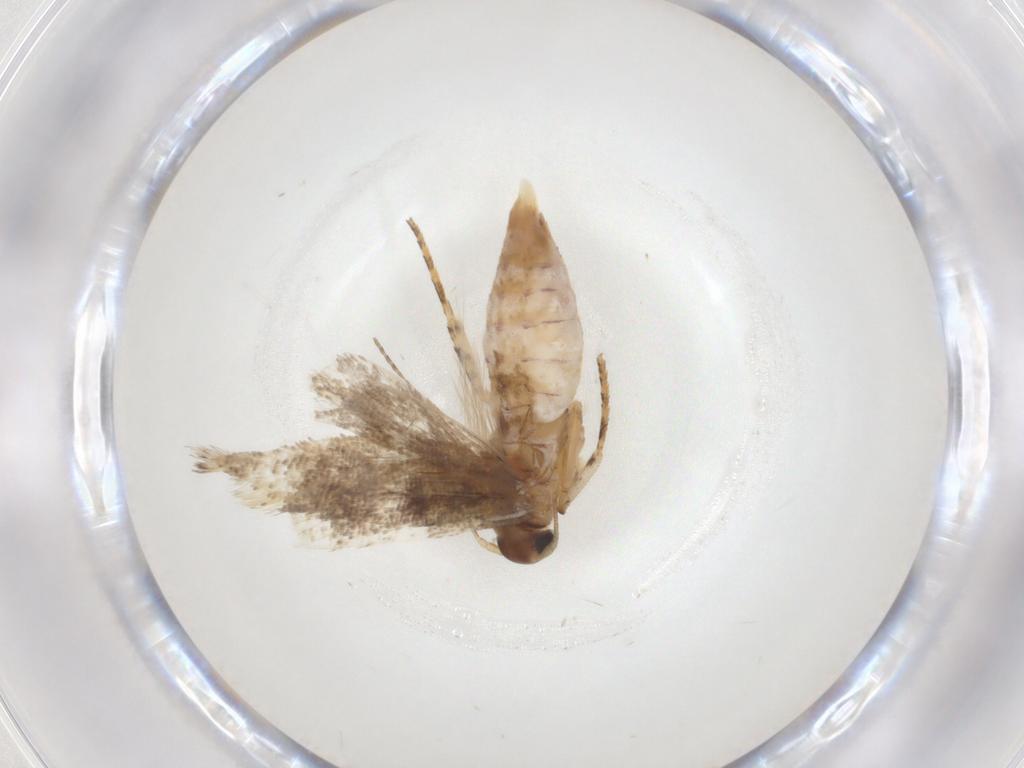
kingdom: Animalia
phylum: Arthropoda
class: Insecta
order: Lepidoptera
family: Gelechiidae
